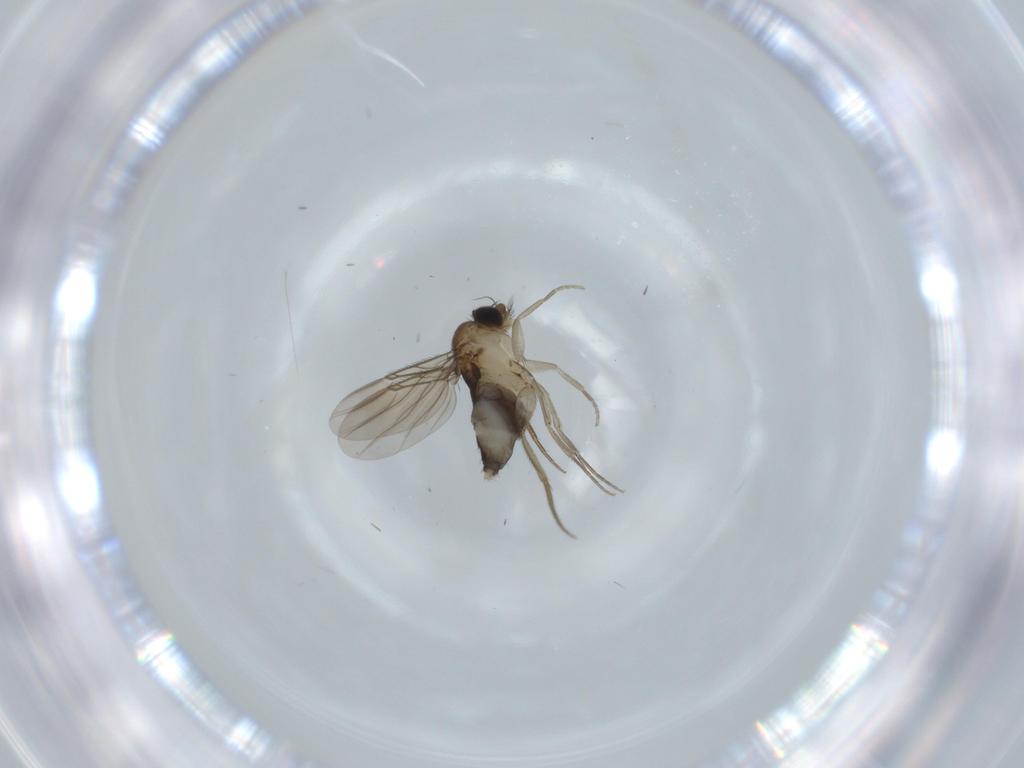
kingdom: Animalia
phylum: Arthropoda
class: Insecta
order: Diptera
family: Phoridae
